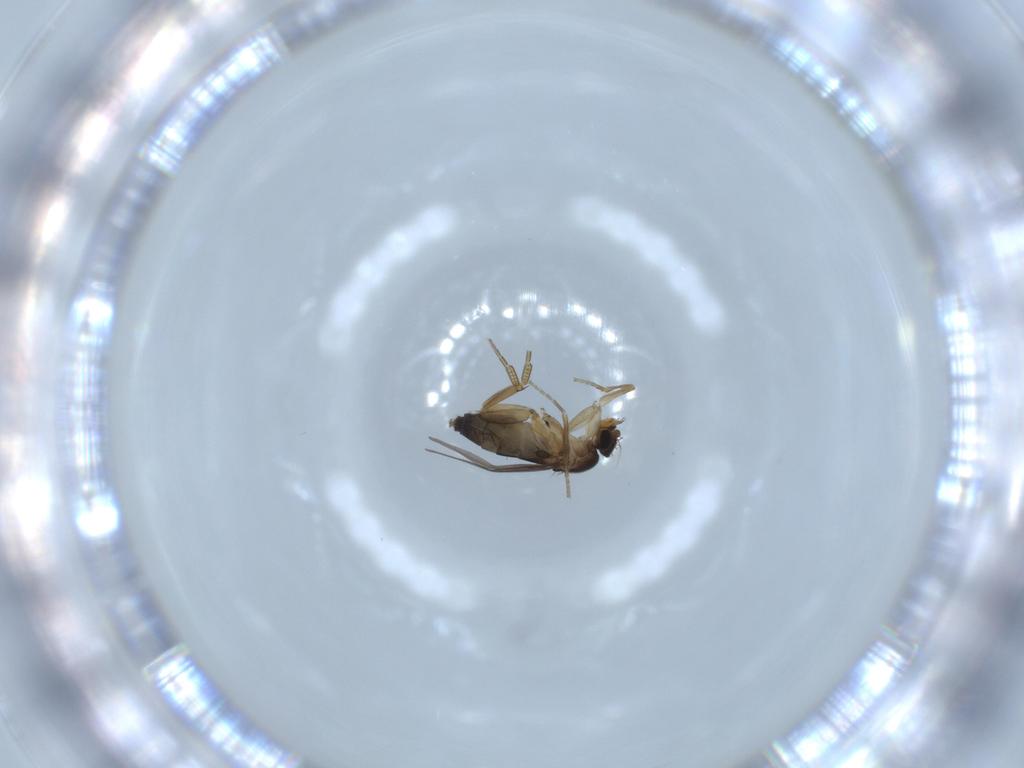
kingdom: Animalia
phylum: Arthropoda
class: Insecta
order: Diptera
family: Phoridae
